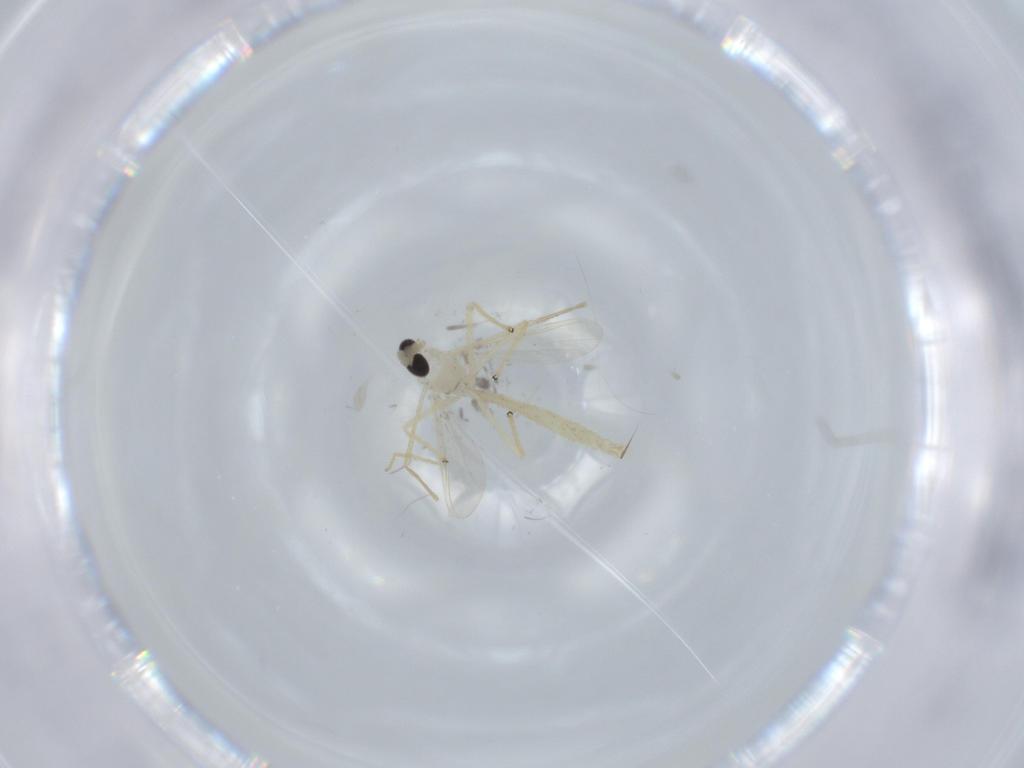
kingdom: Animalia
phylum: Arthropoda
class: Insecta
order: Diptera
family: Chironomidae
